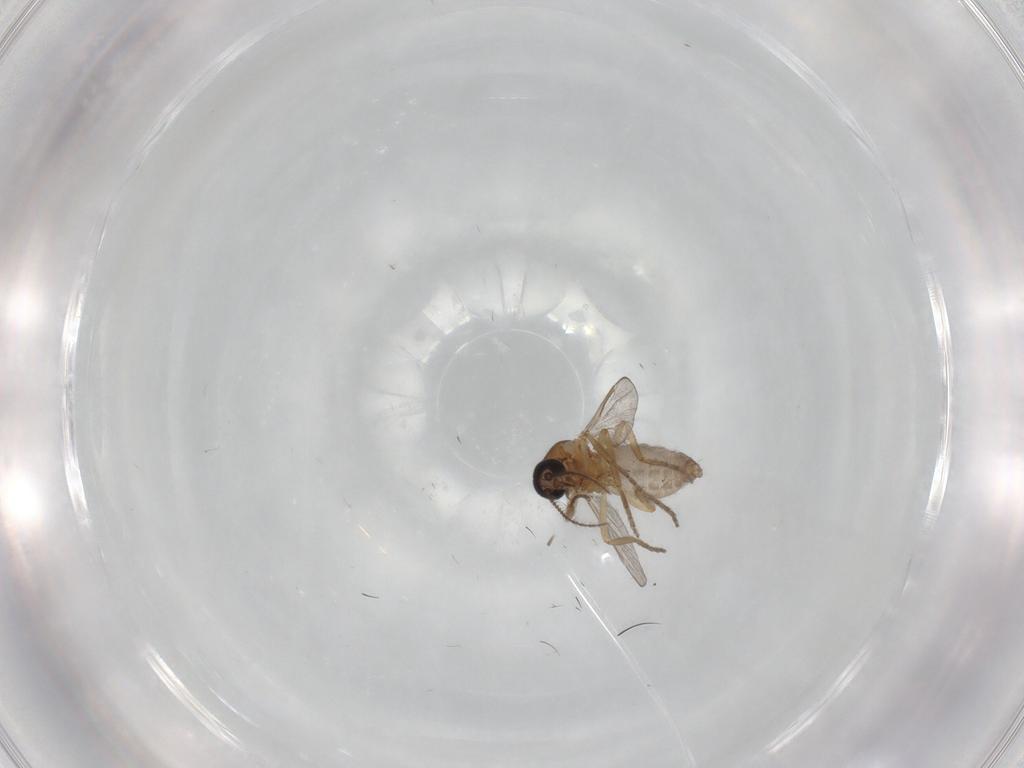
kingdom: Animalia
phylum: Arthropoda
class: Insecta
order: Diptera
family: Ceratopogonidae
